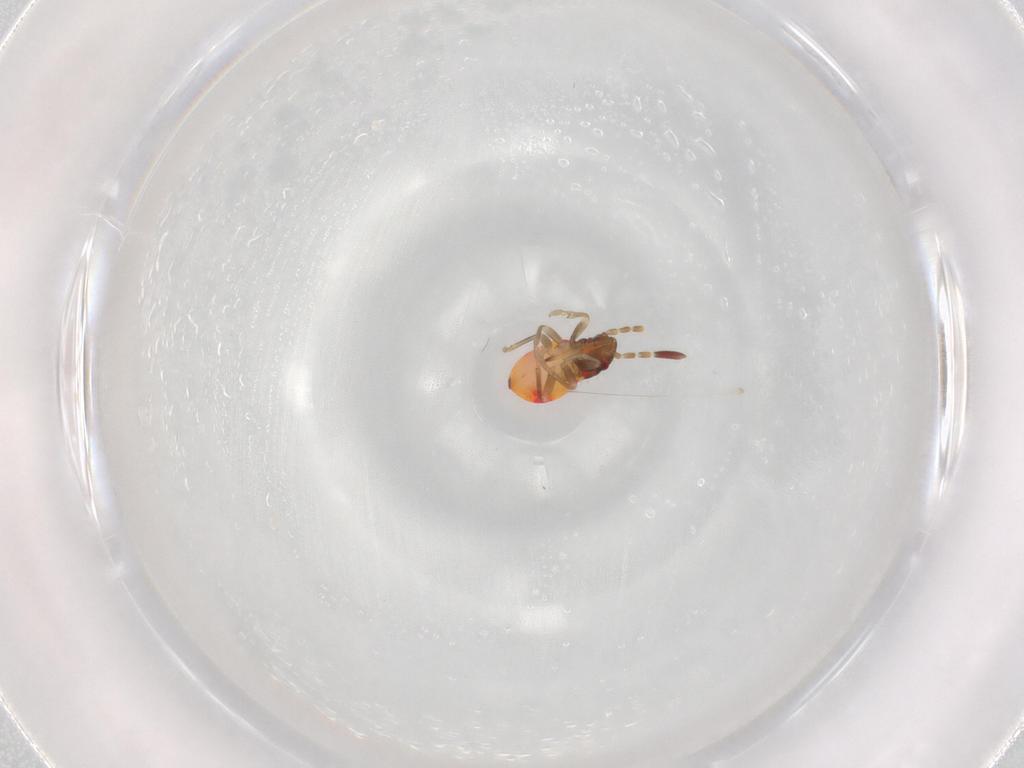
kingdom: Animalia
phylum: Arthropoda
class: Insecta
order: Hemiptera
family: Rhyparochromidae
